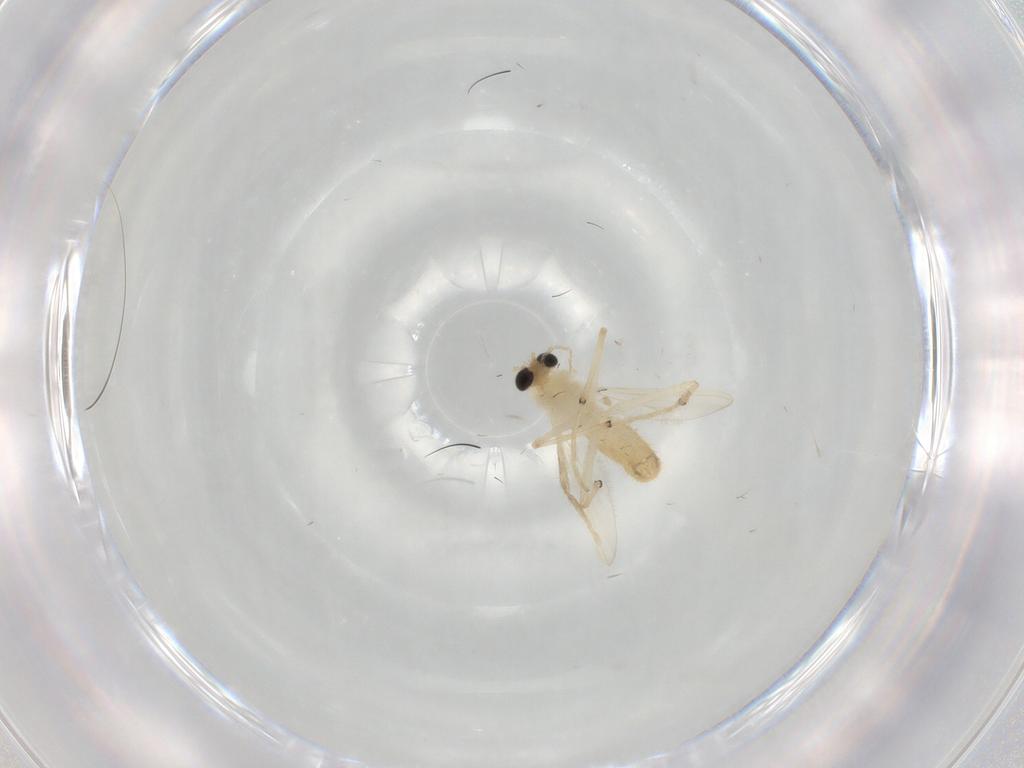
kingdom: Animalia
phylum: Arthropoda
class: Insecta
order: Diptera
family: Chironomidae
